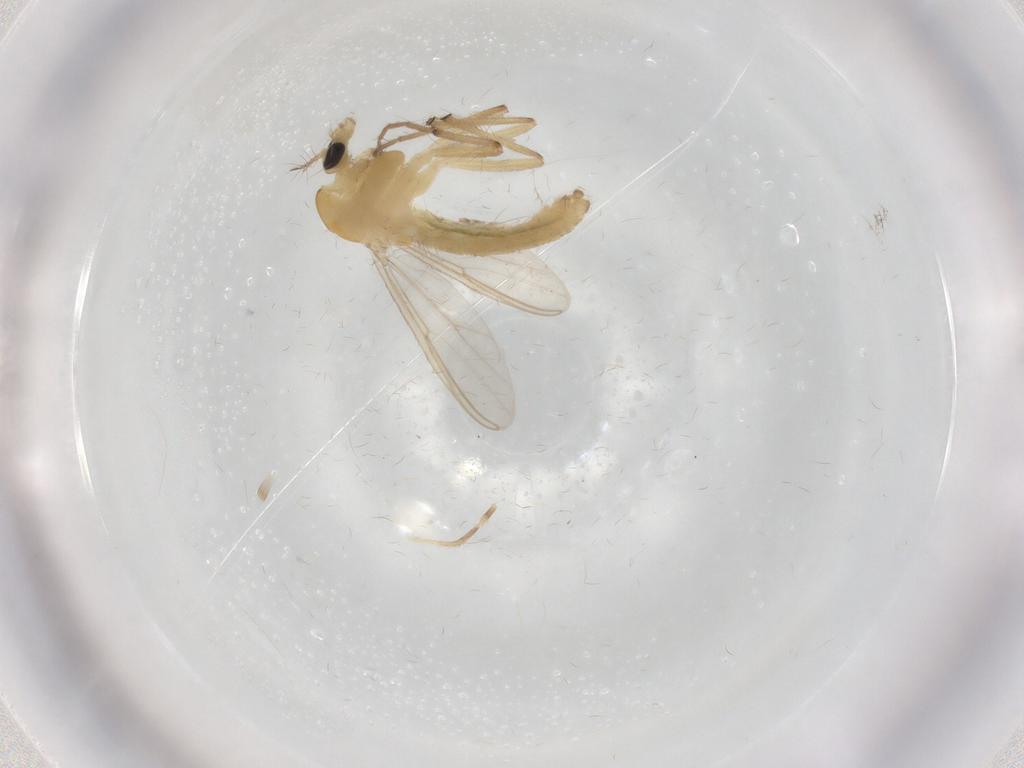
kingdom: Animalia
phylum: Arthropoda
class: Insecta
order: Diptera
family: Chironomidae
